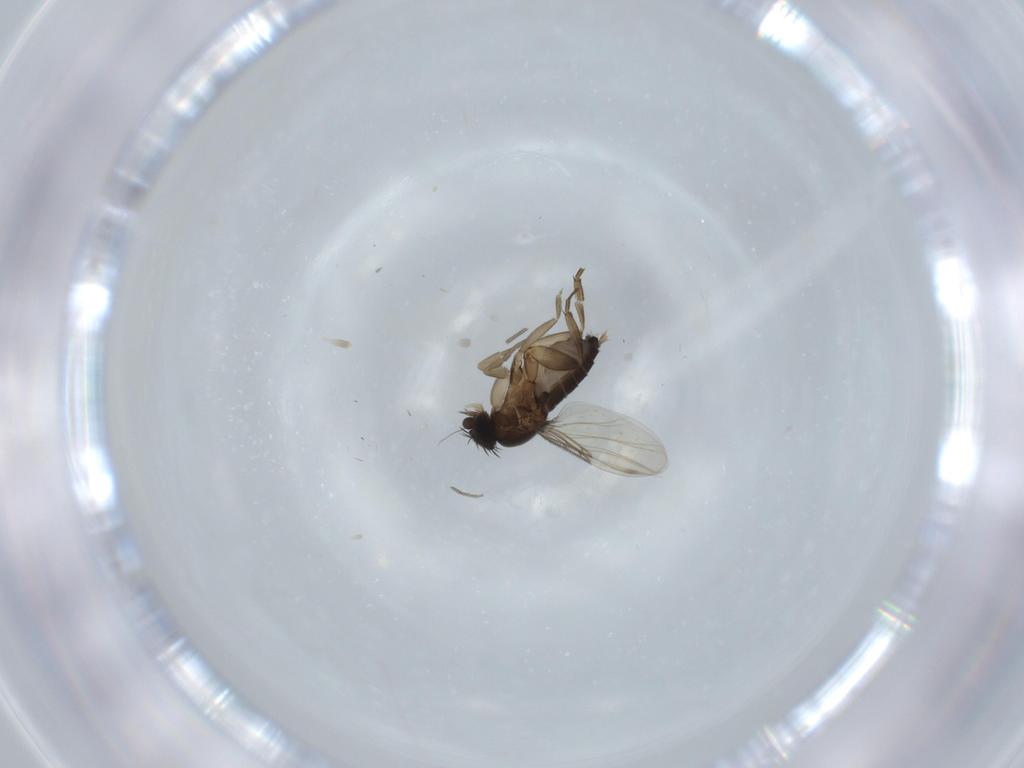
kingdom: Animalia
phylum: Arthropoda
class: Insecta
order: Diptera
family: Phoridae
